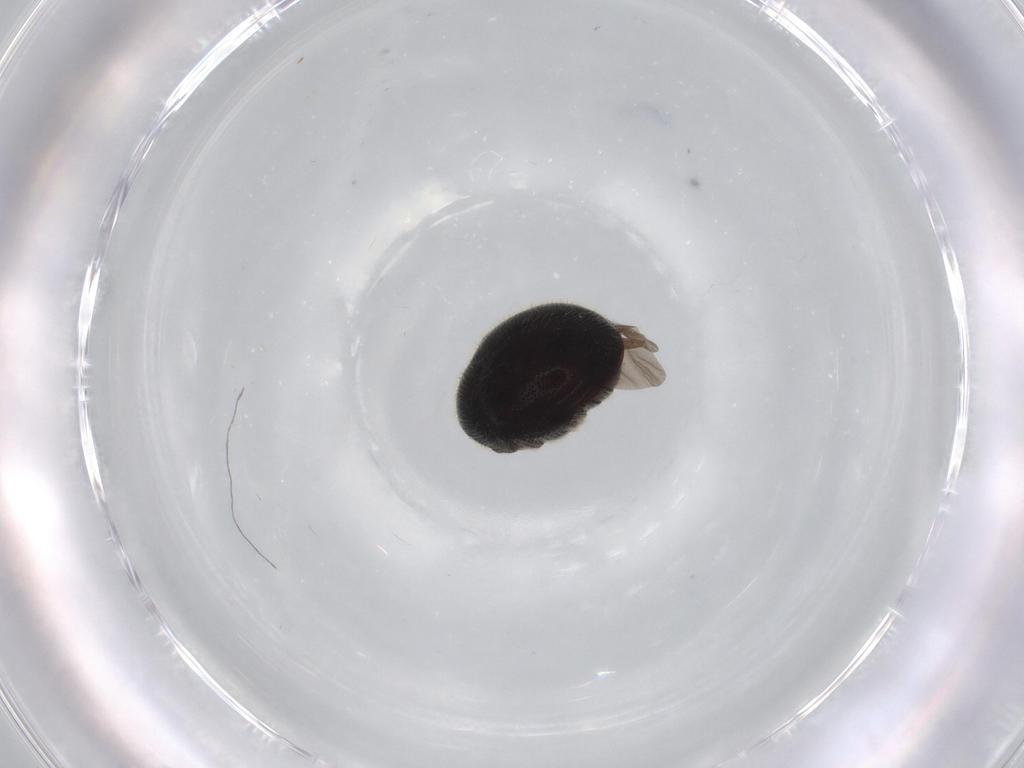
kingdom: Animalia
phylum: Arthropoda
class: Insecta
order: Coleoptera
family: Ptinidae
